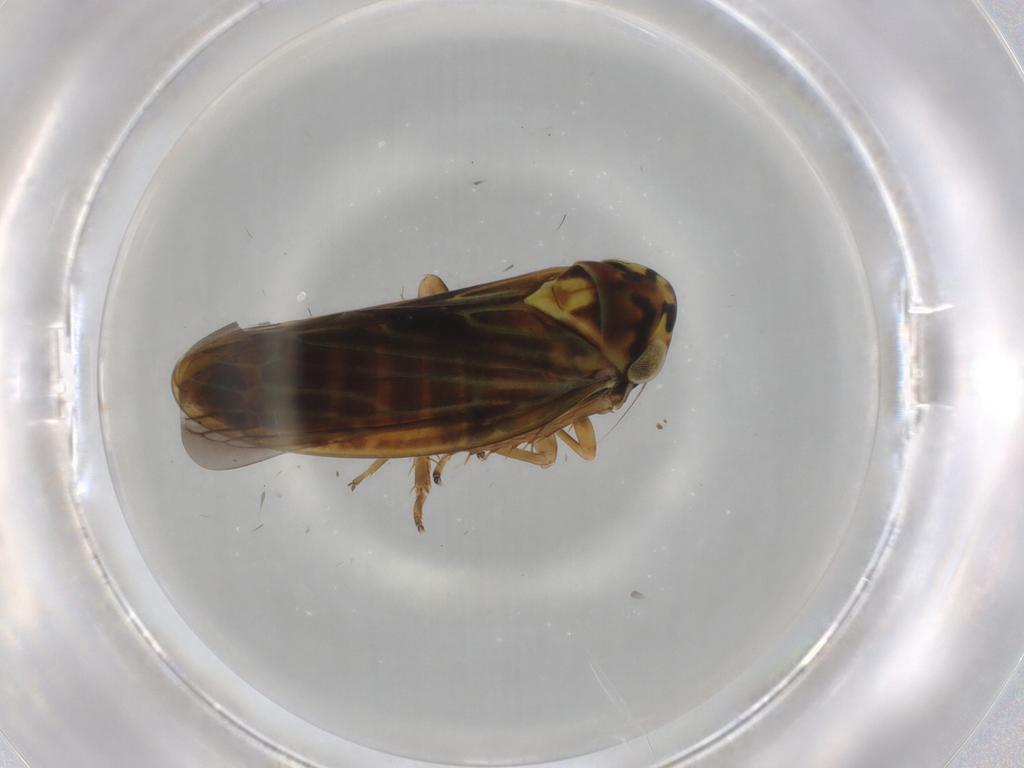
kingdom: Animalia
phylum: Arthropoda
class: Insecta
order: Hemiptera
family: Cicadellidae
